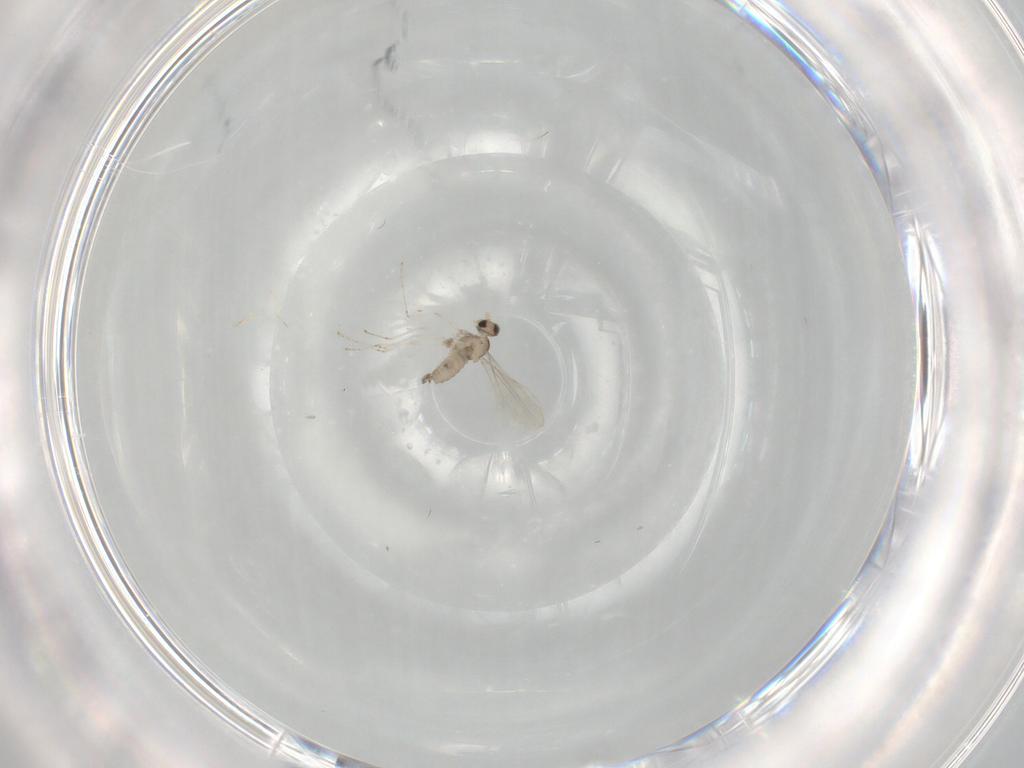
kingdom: Animalia
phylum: Arthropoda
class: Insecta
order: Diptera
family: Cecidomyiidae
